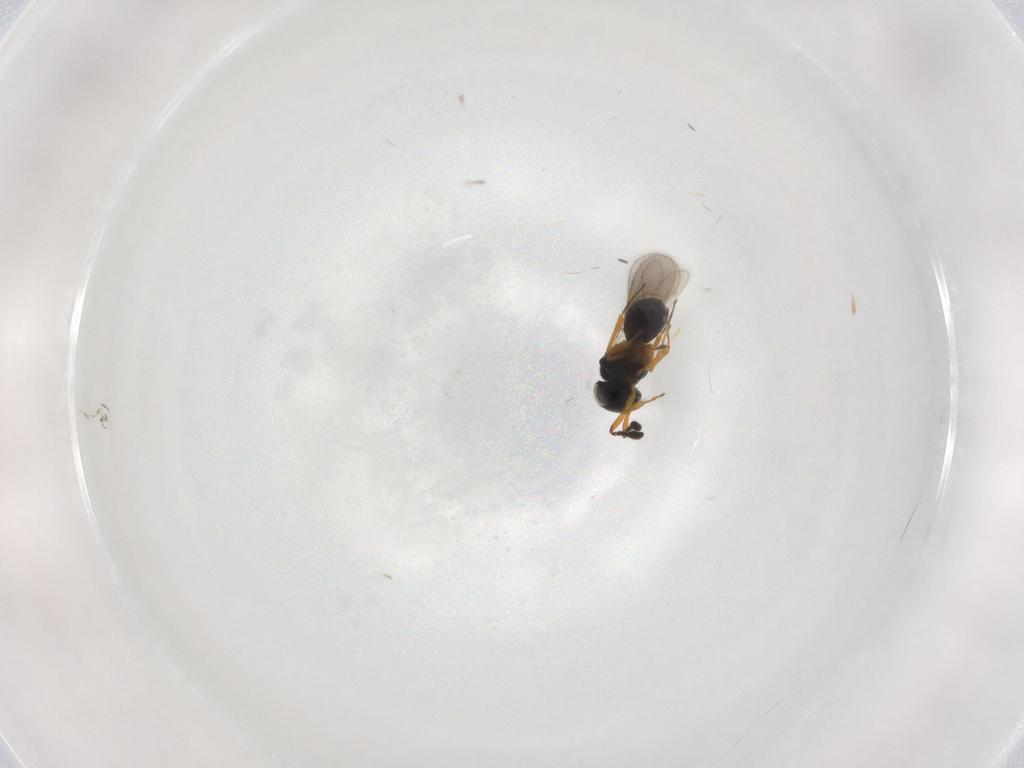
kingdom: Animalia
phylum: Arthropoda
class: Insecta
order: Hymenoptera
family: Scelionidae
